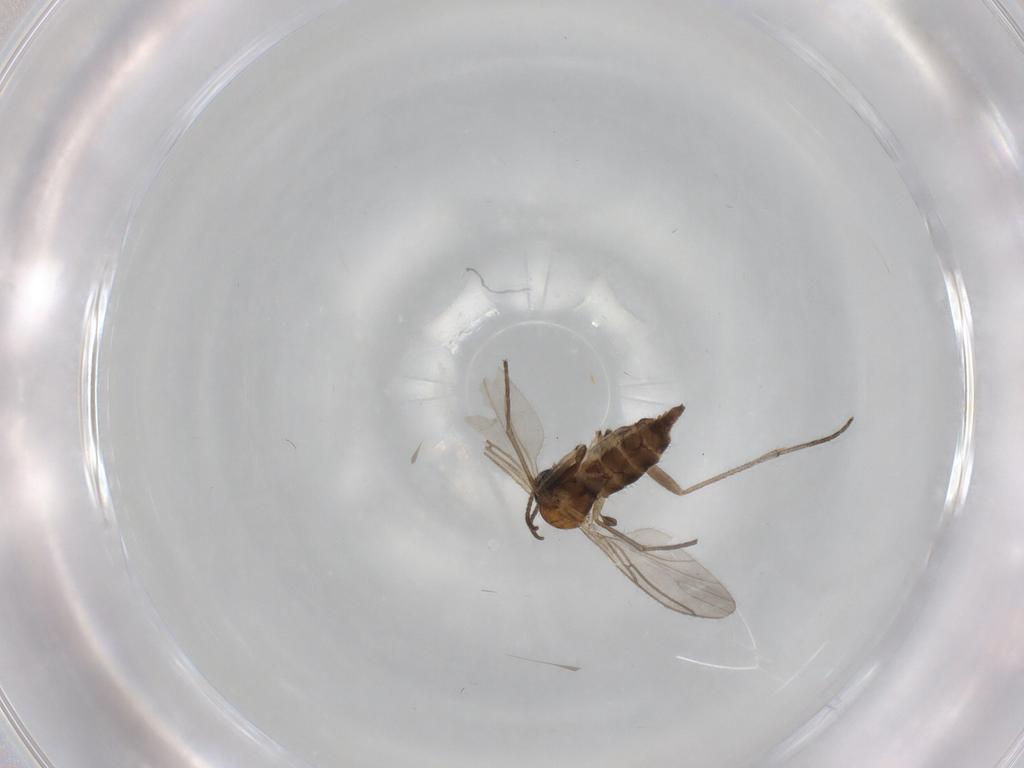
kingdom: Animalia
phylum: Arthropoda
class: Insecta
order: Diptera
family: Sciaridae
